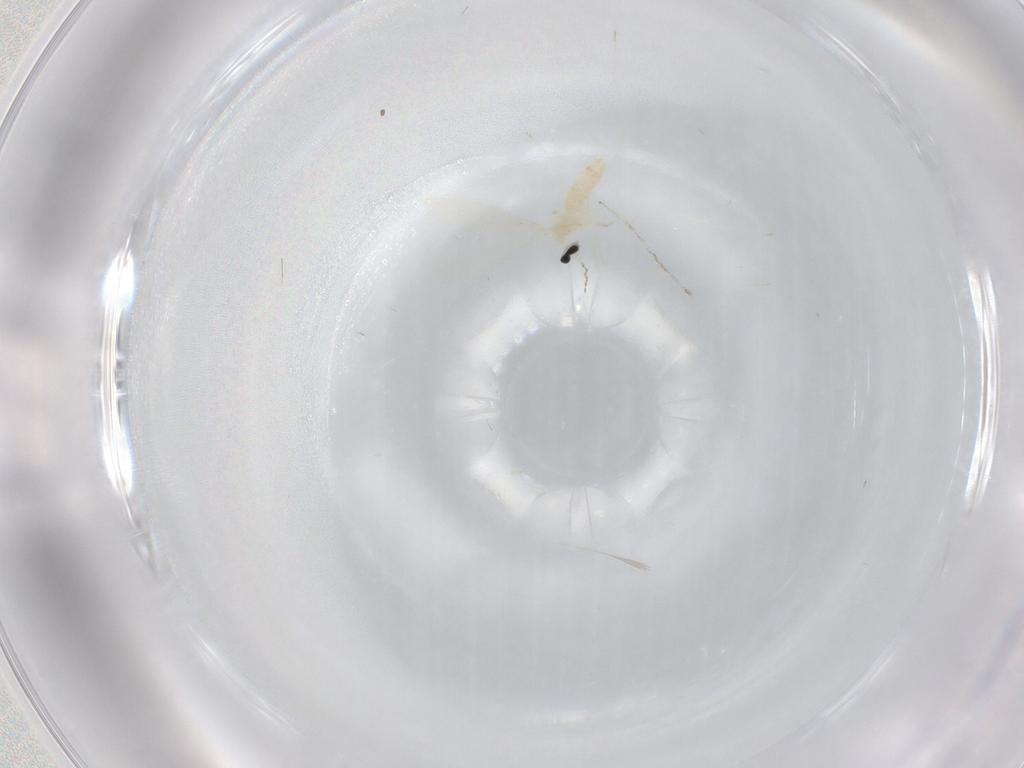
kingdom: Animalia
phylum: Arthropoda
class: Insecta
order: Diptera
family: Cecidomyiidae
